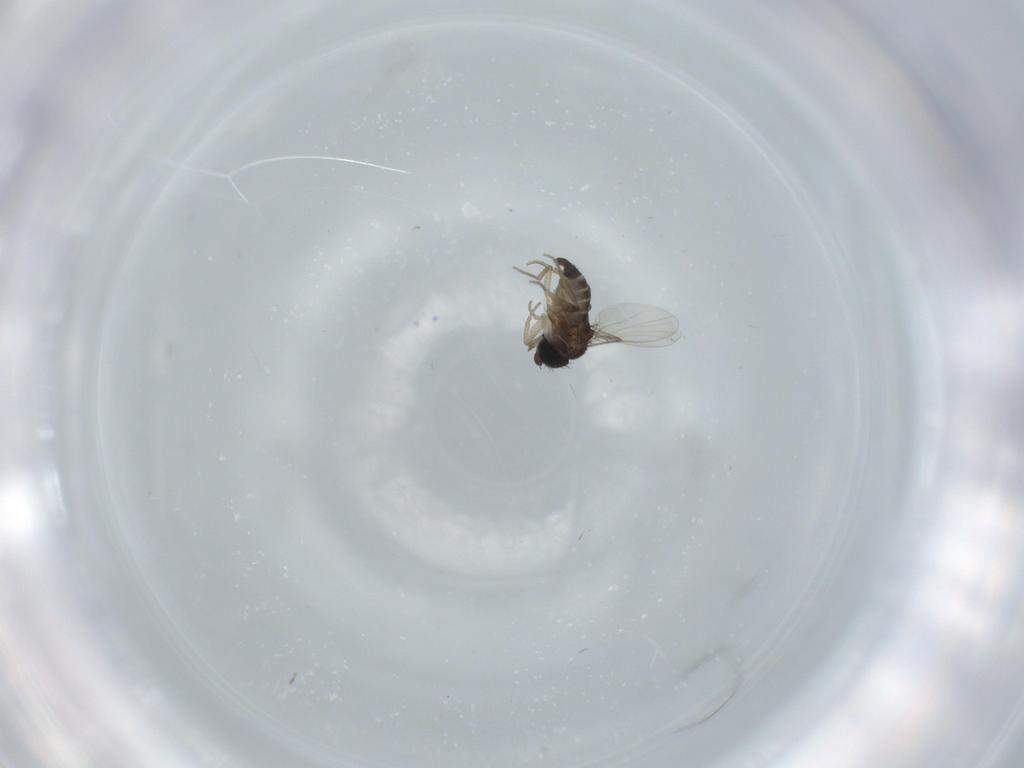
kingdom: Animalia
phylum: Arthropoda
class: Insecta
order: Diptera
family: Phoridae
